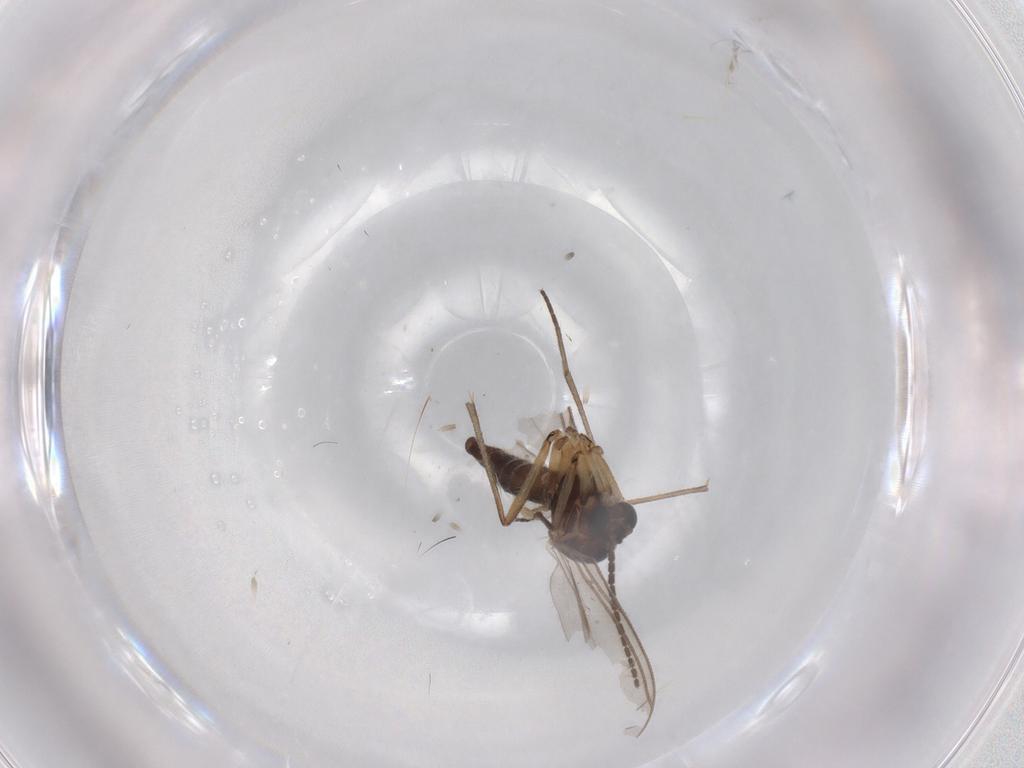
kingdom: Animalia
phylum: Arthropoda
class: Insecta
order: Diptera
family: Sciaridae
